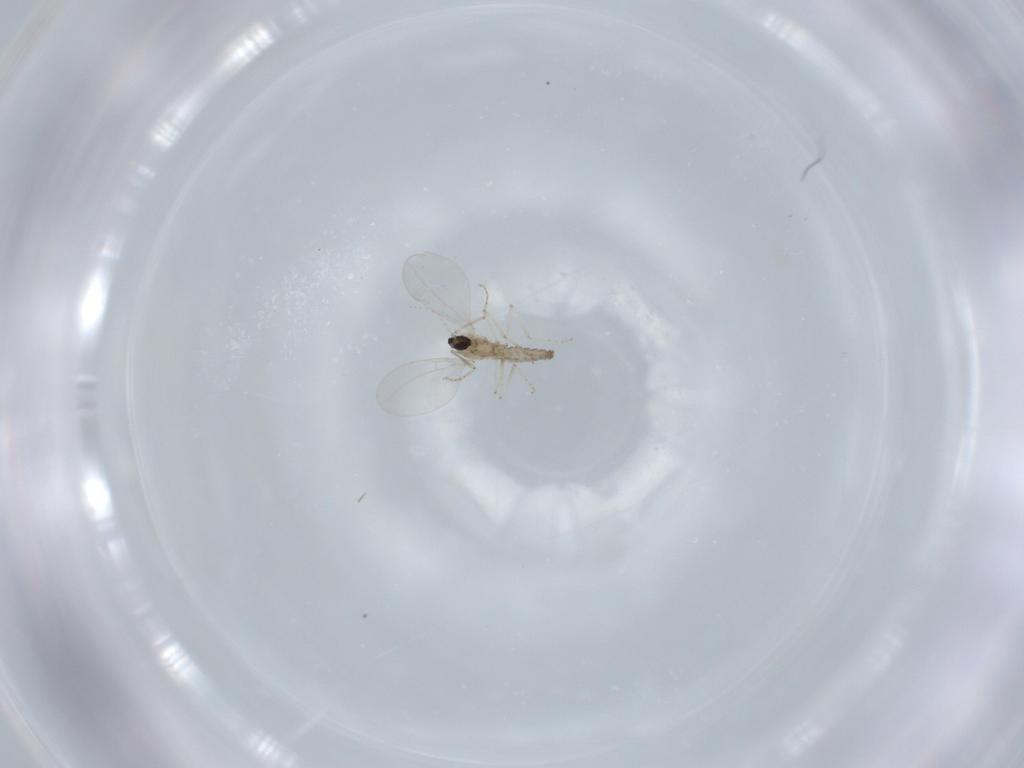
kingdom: Animalia
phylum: Arthropoda
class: Insecta
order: Diptera
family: Cecidomyiidae
